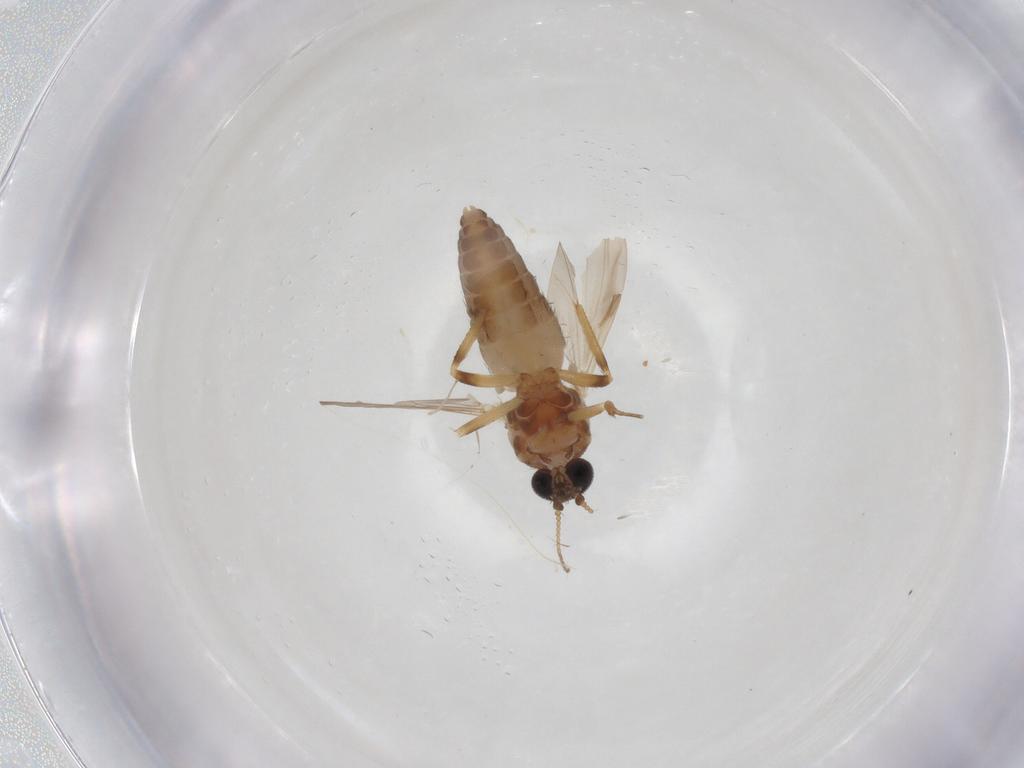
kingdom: Animalia
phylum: Arthropoda
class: Insecta
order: Diptera
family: Ceratopogonidae
